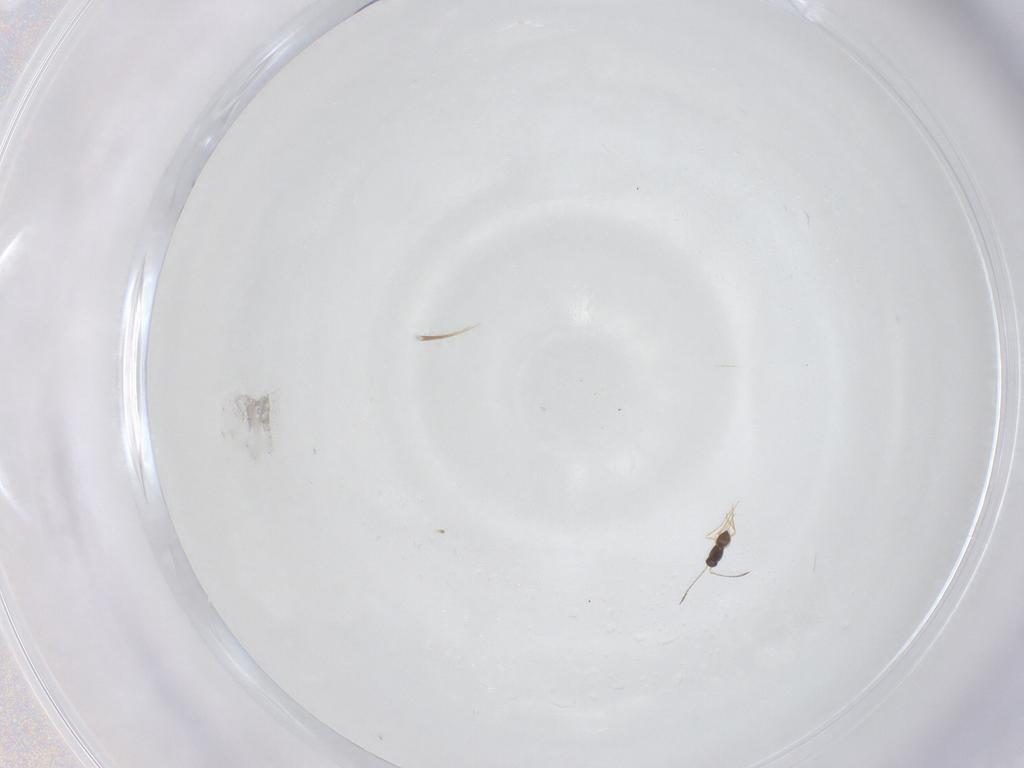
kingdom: Animalia
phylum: Arthropoda
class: Insecta
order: Hymenoptera
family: Mymaridae
